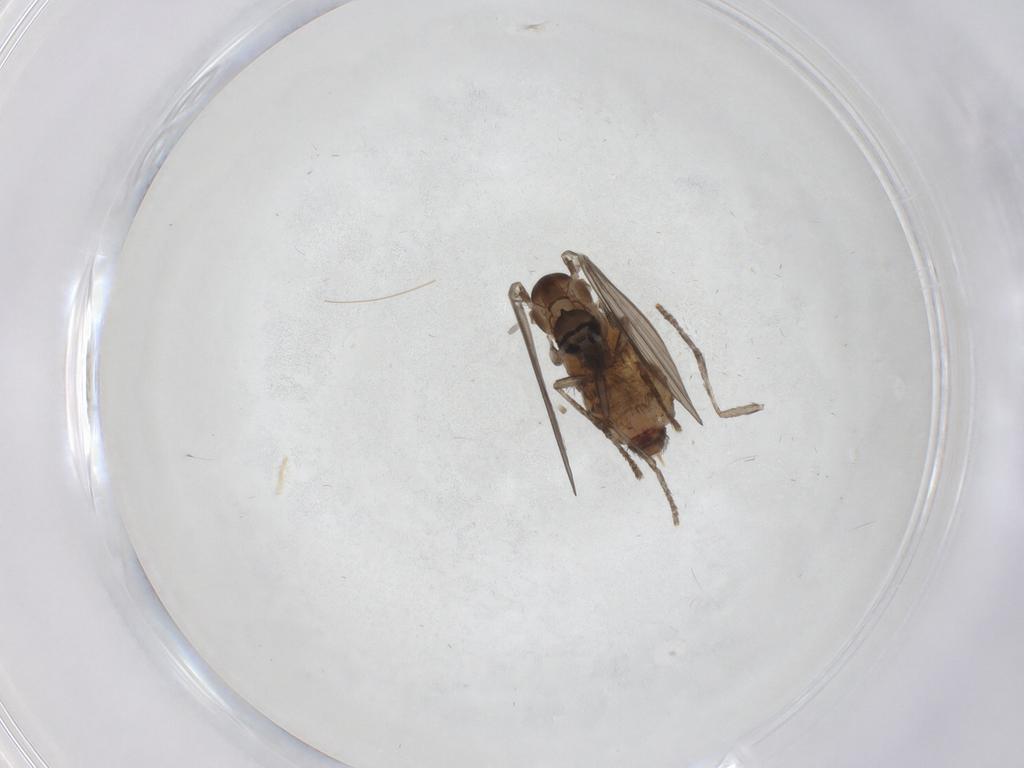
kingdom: Animalia
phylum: Arthropoda
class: Insecta
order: Diptera
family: Psychodidae
